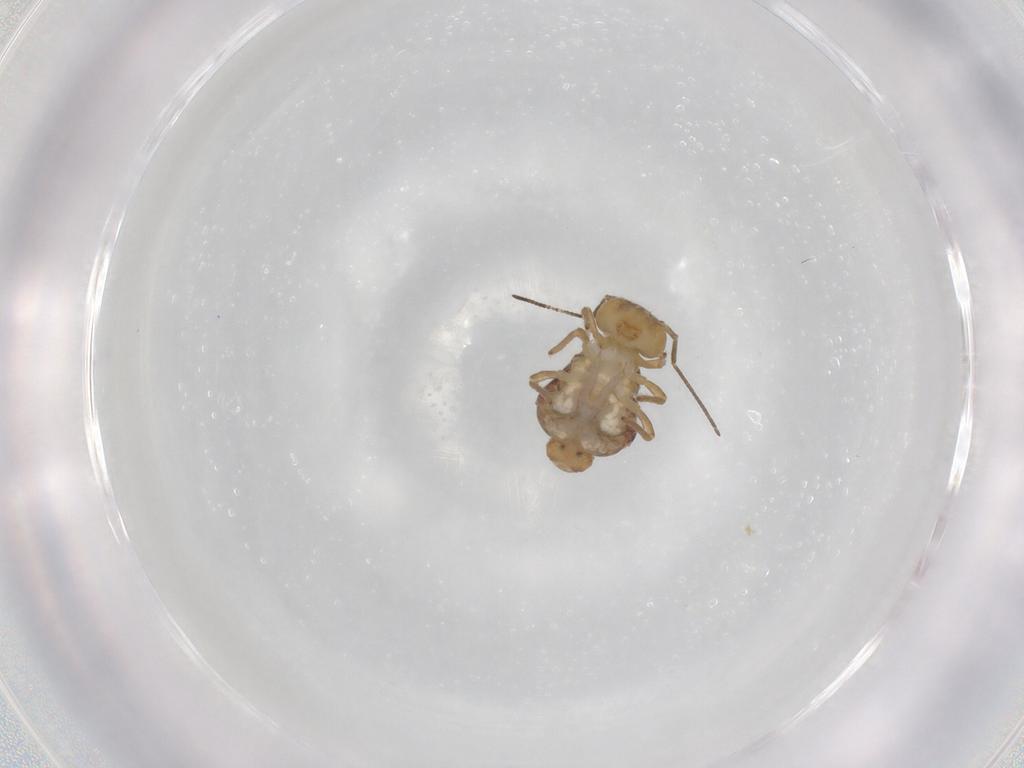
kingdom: Animalia
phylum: Arthropoda
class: Collembola
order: Symphypleona
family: Sminthuridae
